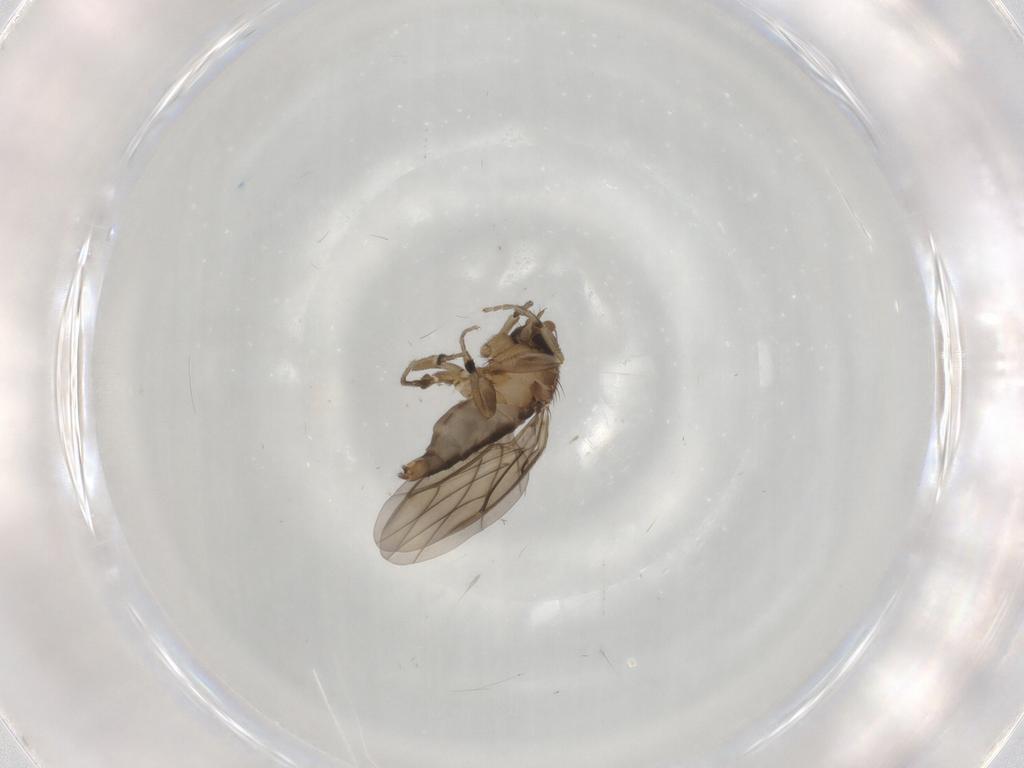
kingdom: Animalia
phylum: Arthropoda
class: Insecta
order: Diptera
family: Phoridae
